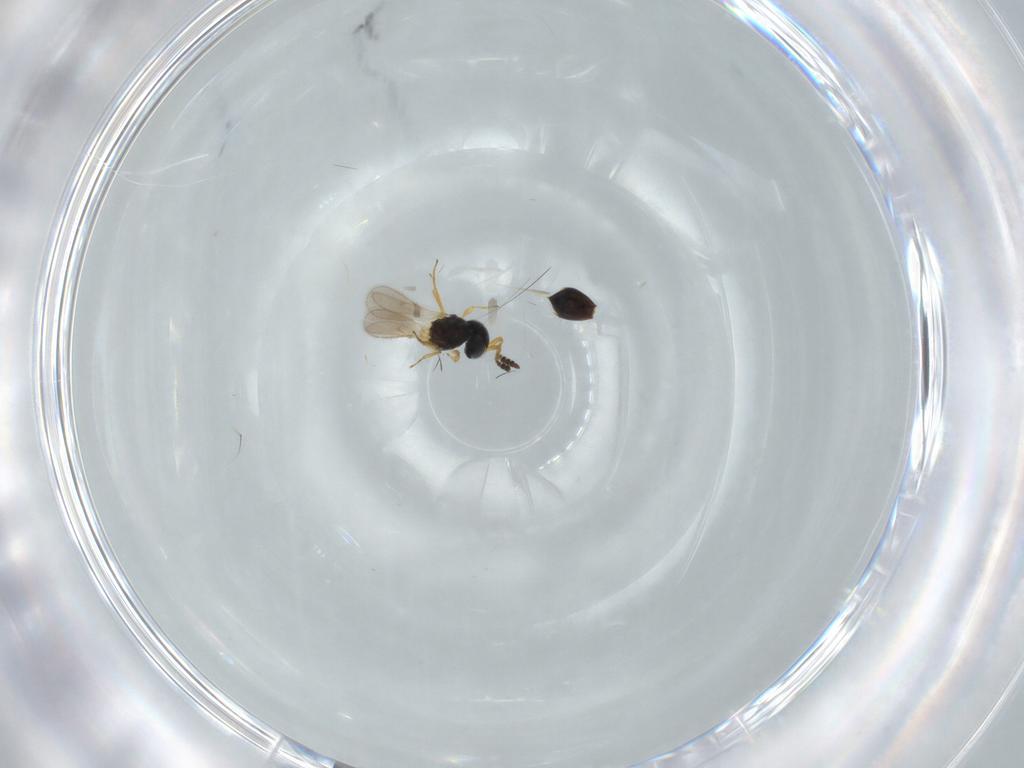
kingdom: Animalia
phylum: Arthropoda
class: Insecta
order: Hymenoptera
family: Scelionidae
